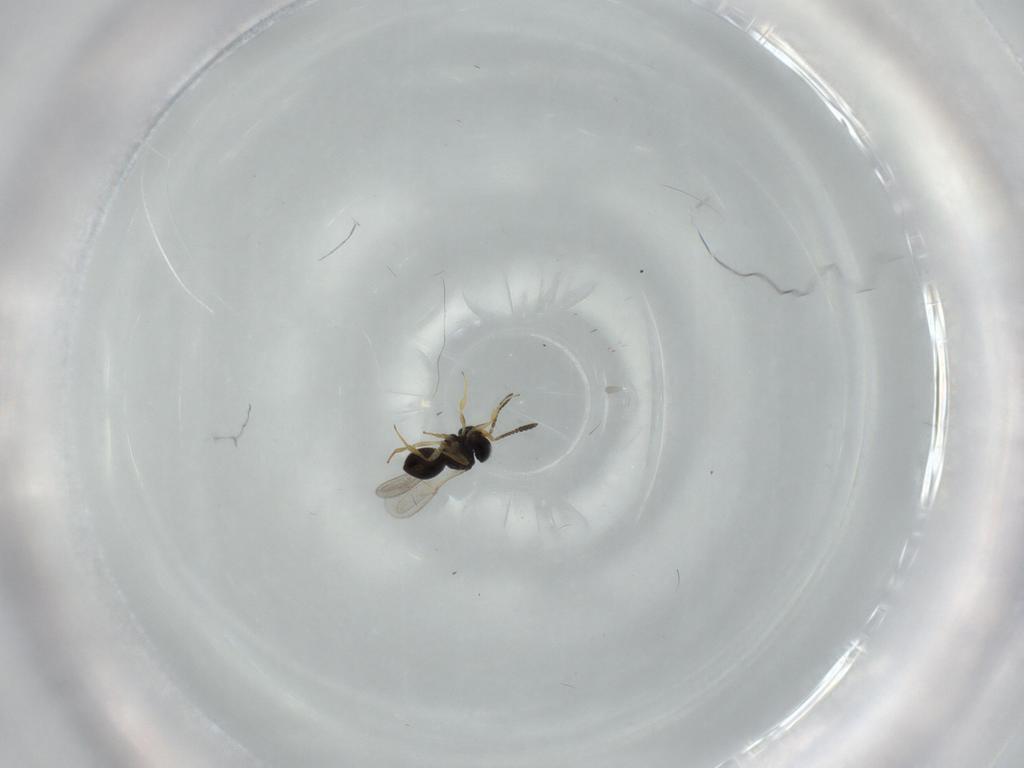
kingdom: Animalia
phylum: Arthropoda
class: Insecta
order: Hymenoptera
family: Scelionidae
